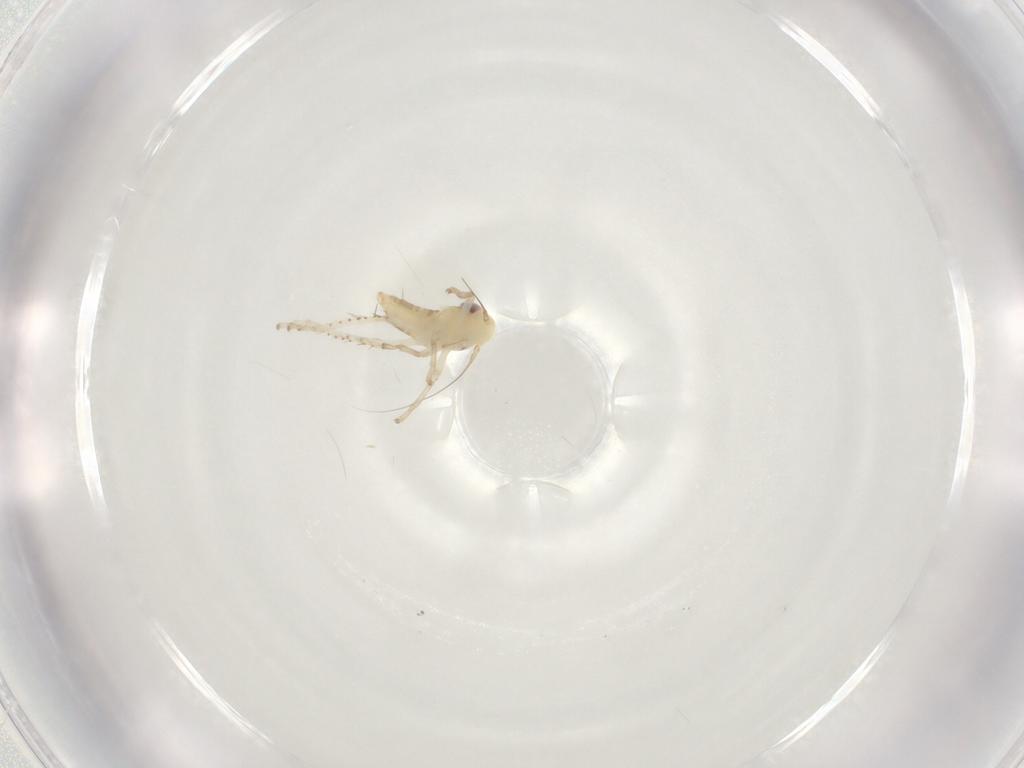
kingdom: Animalia
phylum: Arthropoda
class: Insecta
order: Hemiptera
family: Cicadellidae
